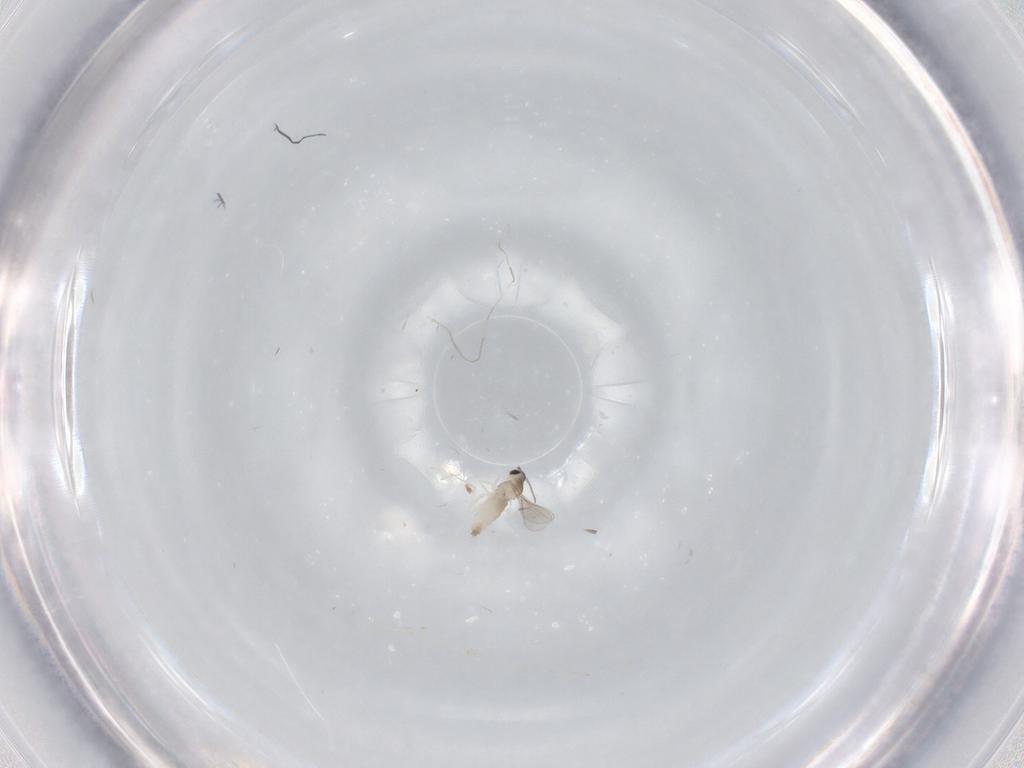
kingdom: Animalia
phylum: Arthropoda
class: Insecta
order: Diptera
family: Cecidomyiidae
